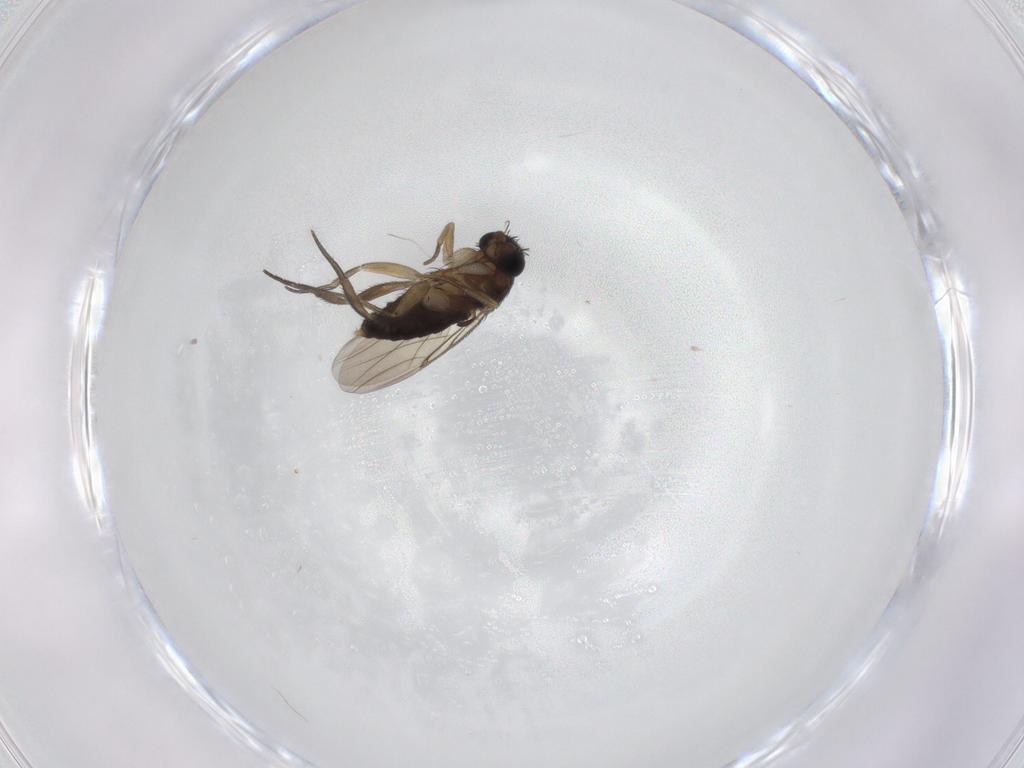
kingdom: Animalia
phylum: Arthropoda
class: Insecta
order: Diptera
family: Phoridae
